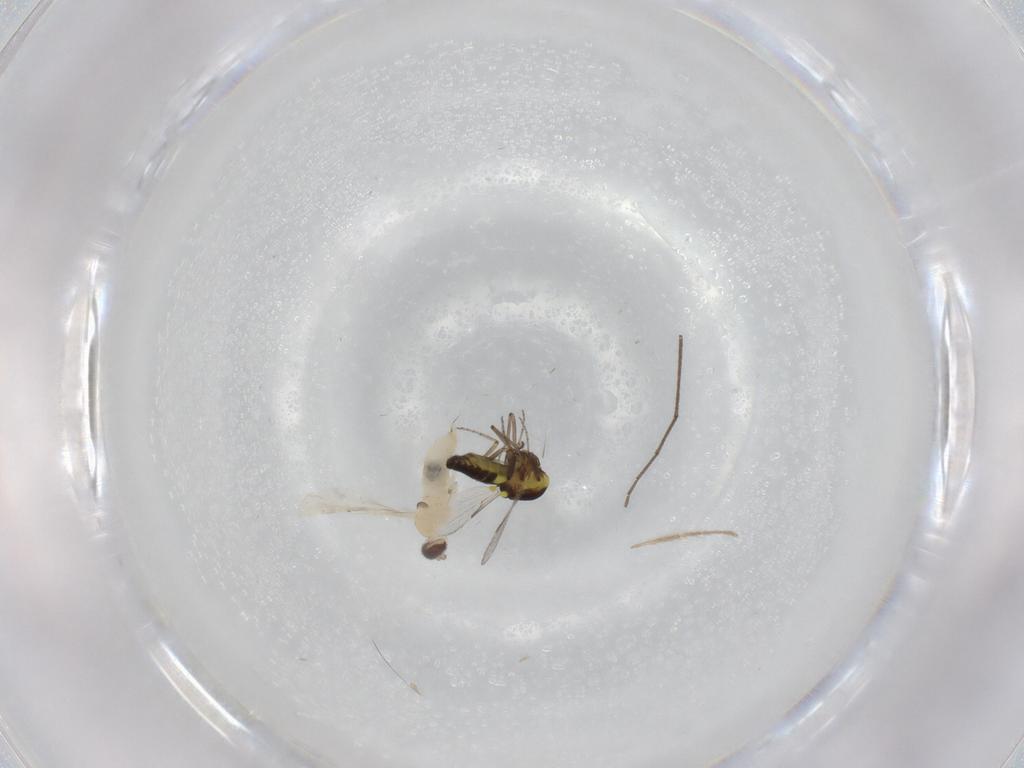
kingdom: Animalia
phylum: Arthropoda
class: Insecta
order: Diptera
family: Cecidomyiidae
